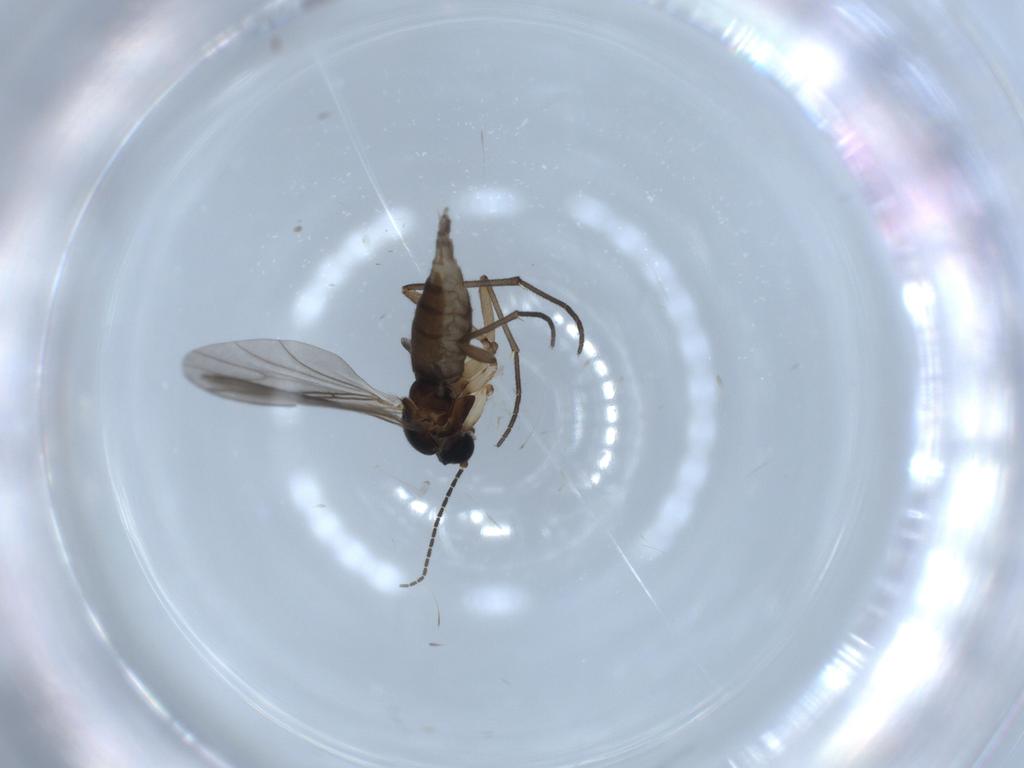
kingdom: Animalia
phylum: Arthropoda
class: Insecta
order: Diptera
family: Sciaridae
